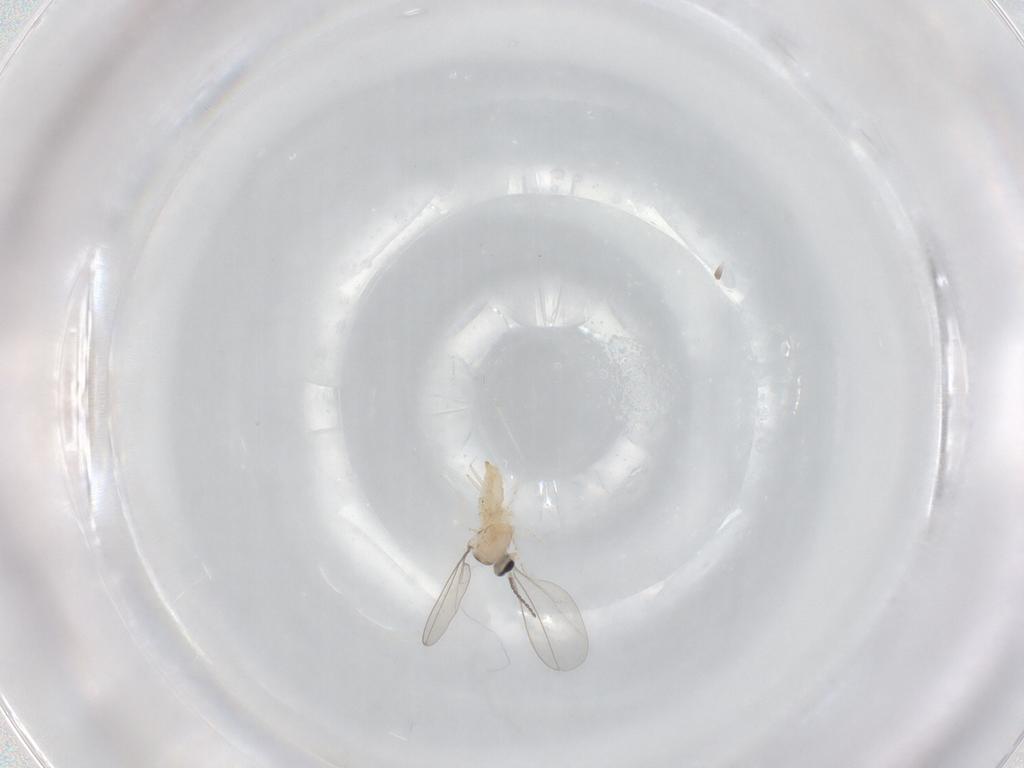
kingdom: Animalia
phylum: Arthropoda
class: Insecta
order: Diptera
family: Cecidomyiidae
